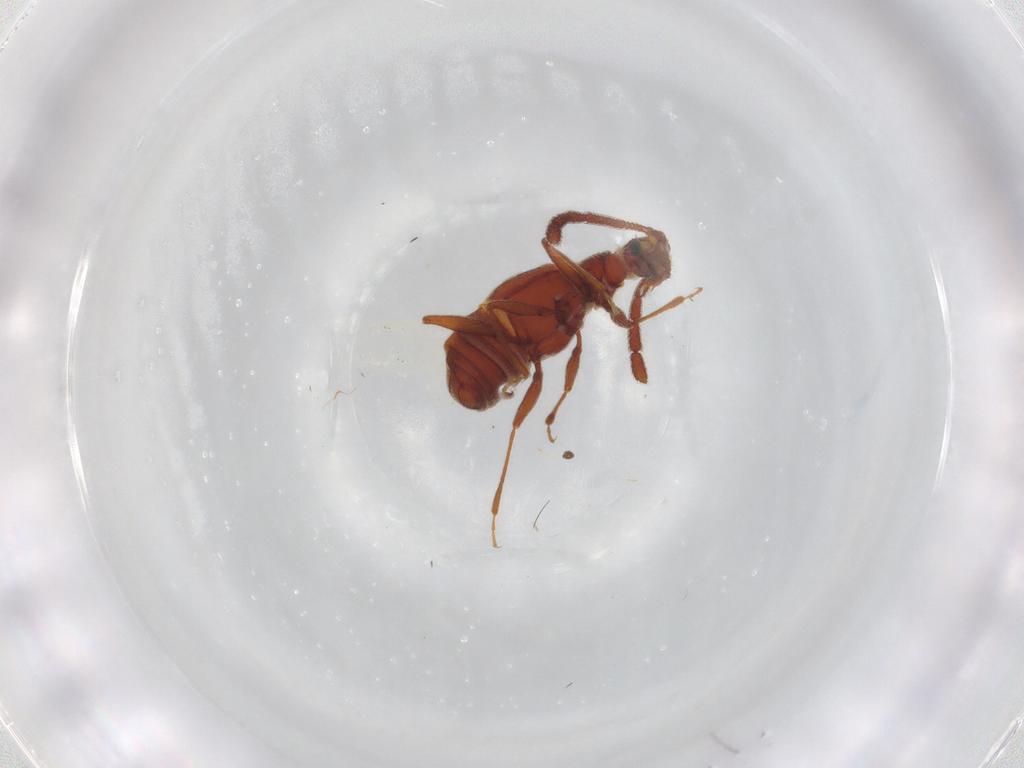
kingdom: Animalia
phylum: Arthropoda
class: Insecta
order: Coleoptera
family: Staphylinidae
